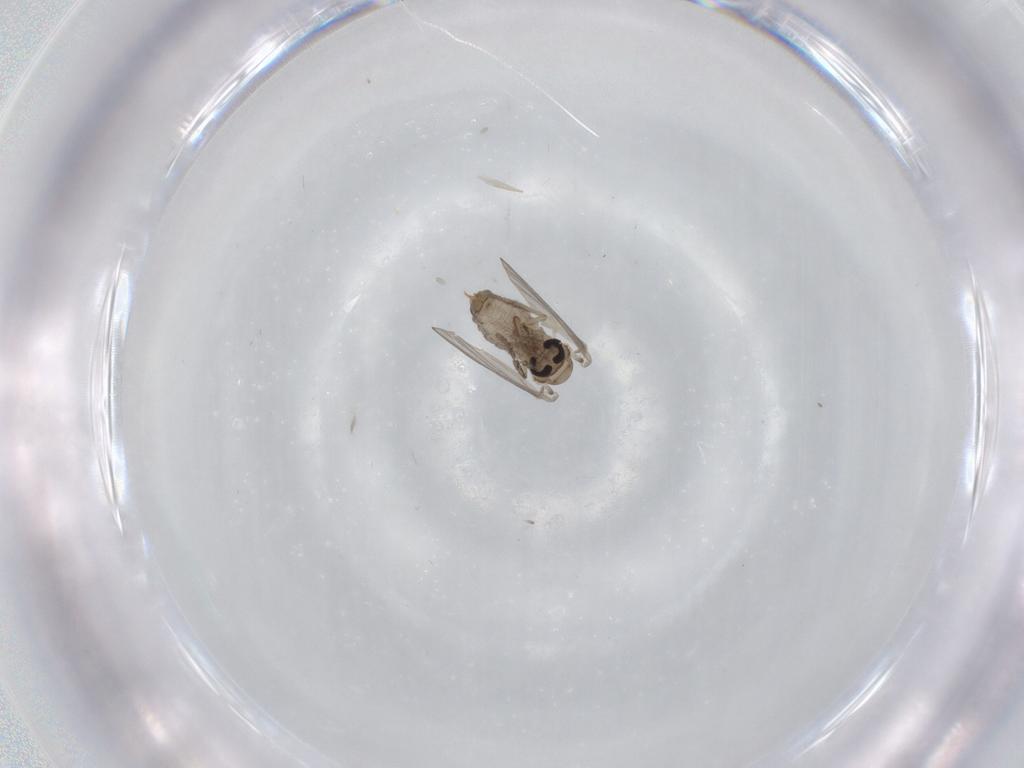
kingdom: Animalia
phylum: Arthropoda
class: Insecta
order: Diptera
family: Psychodidae
